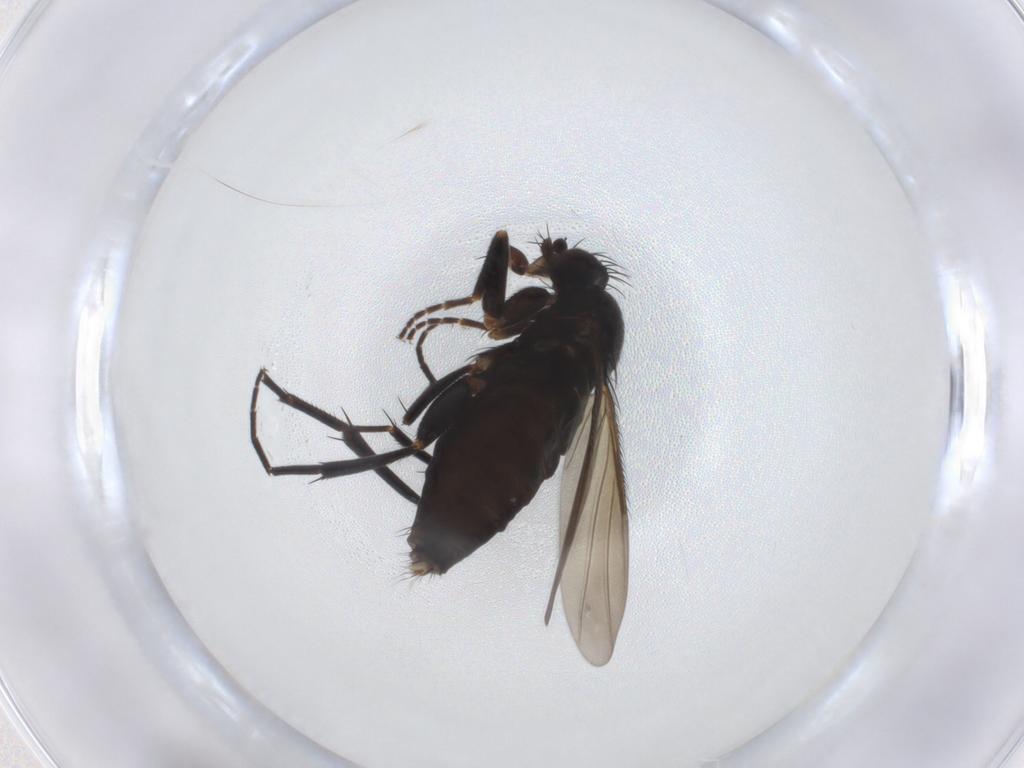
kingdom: Animalia
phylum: Arthropoda
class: Insecta
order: Diptera
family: Phoridae
